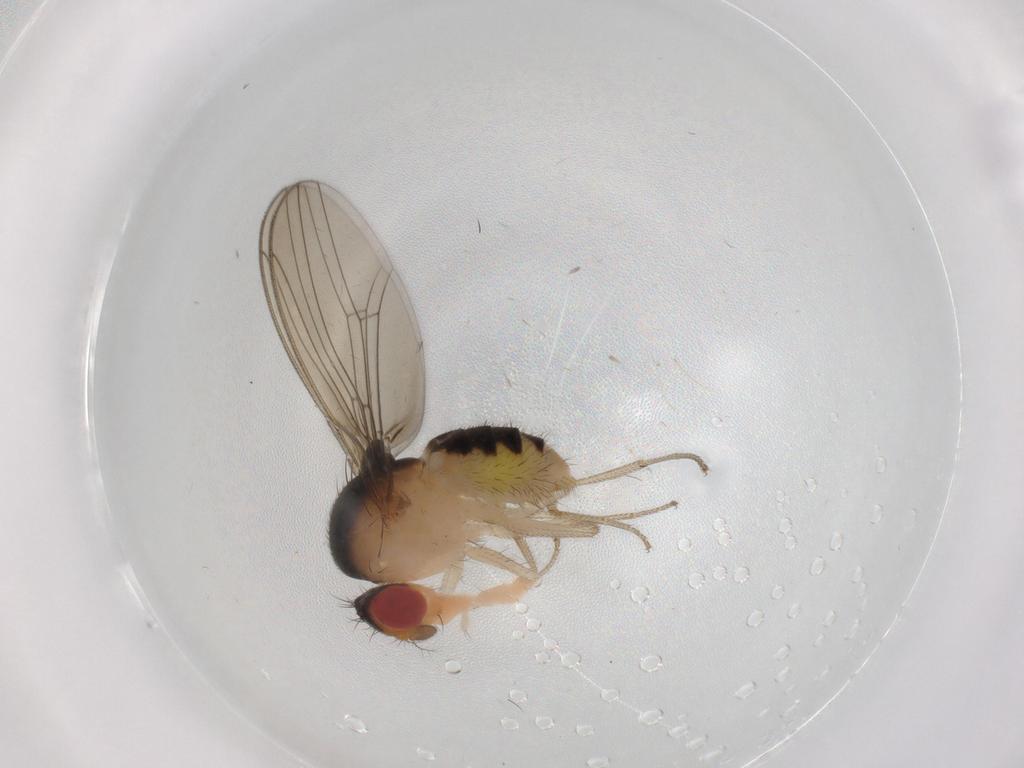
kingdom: Animalia
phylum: Arthropoda
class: Insecta
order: Diptera
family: Drosophilidae
